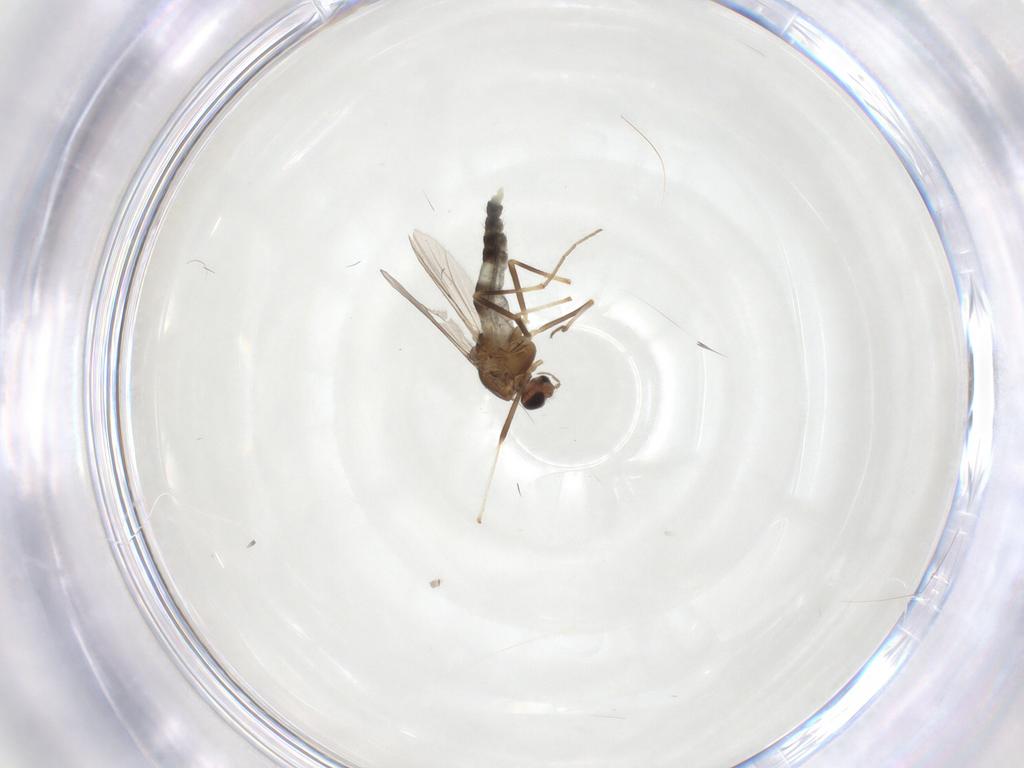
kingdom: Animalia
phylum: Arthropoda
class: Insecta
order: Diptera
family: Chironomidae
